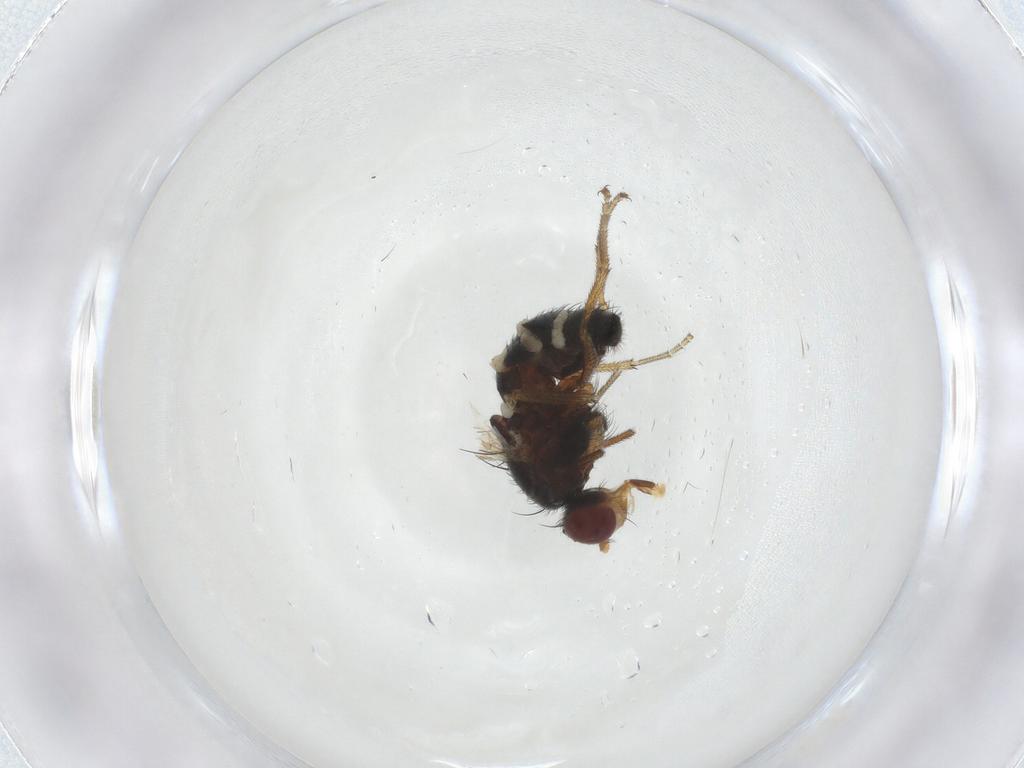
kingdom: Animalia
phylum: Arthropoda
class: Insecta
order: Diptera
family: Heleomyzidae
